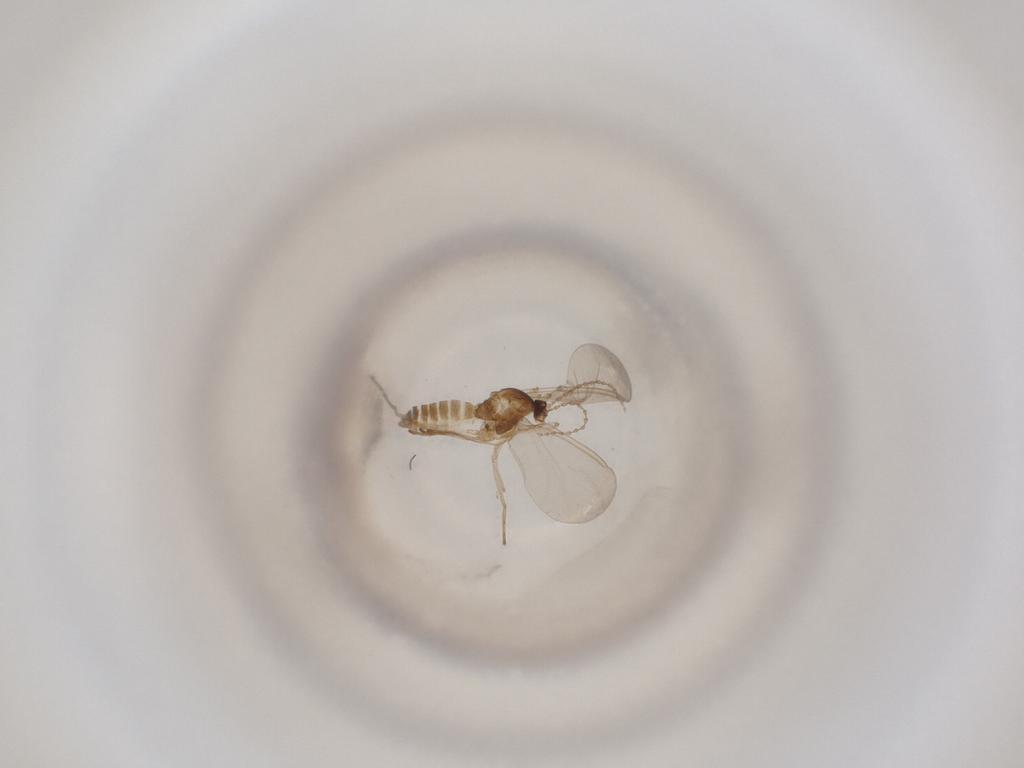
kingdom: Animalia
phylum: Arthropoda
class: Insecta
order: Diptera
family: Cecidomyiidae
